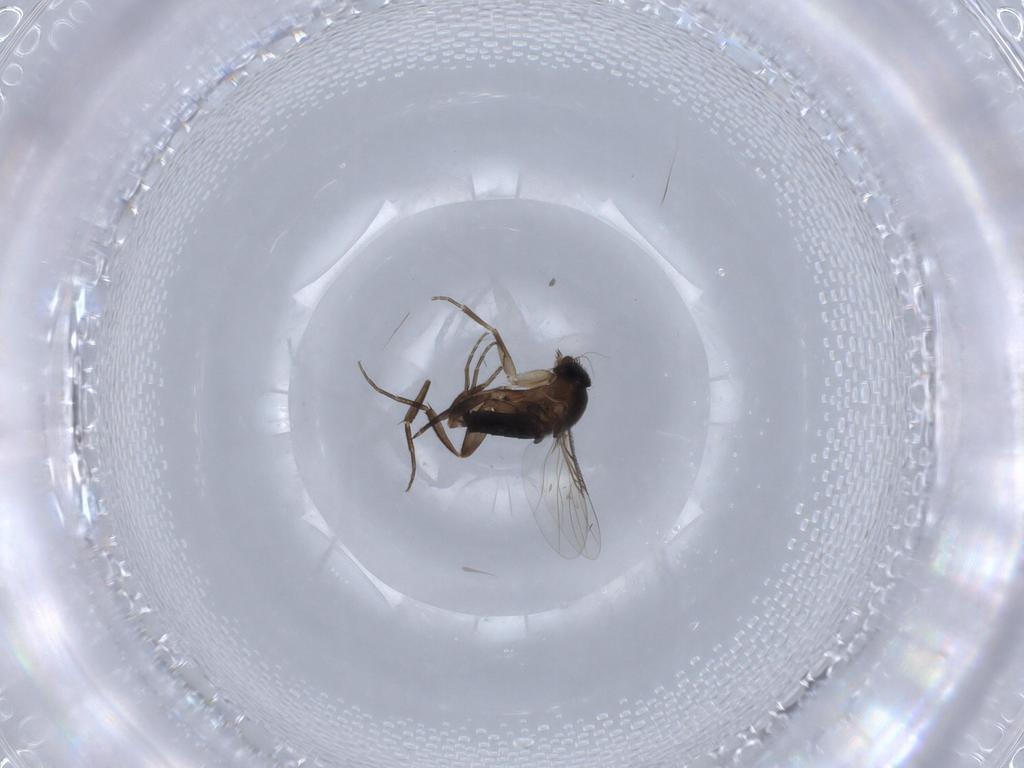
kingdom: Animalia
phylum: Arthropoda
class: Insecta
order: Diptera
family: Phoridae
